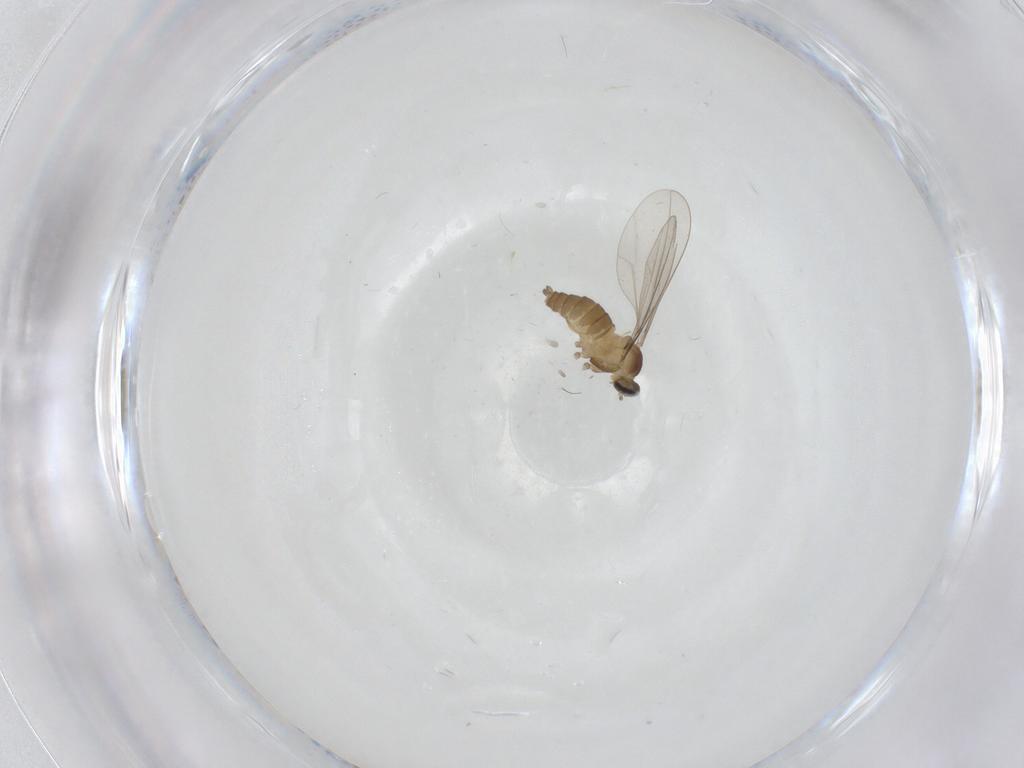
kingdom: Animalia
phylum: Arthropoda
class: Insecta
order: Diptera
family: Cecidomyiidae
